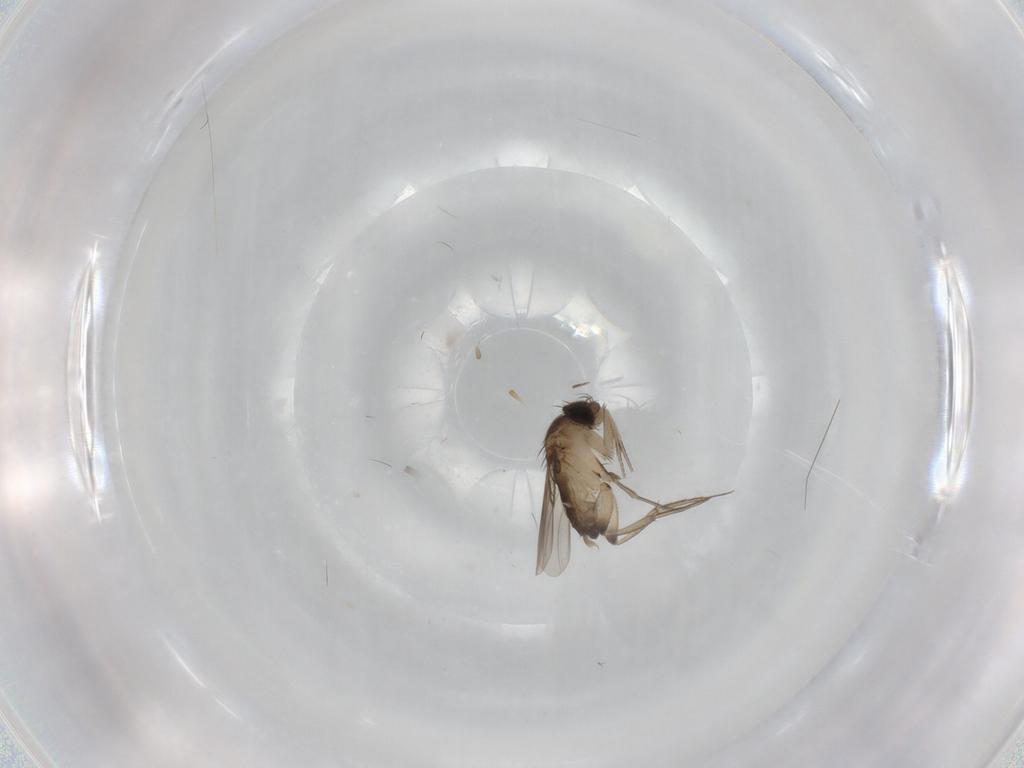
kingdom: Animalia
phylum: Arthropoda
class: Insecta
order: Diptera
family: Phoridae
